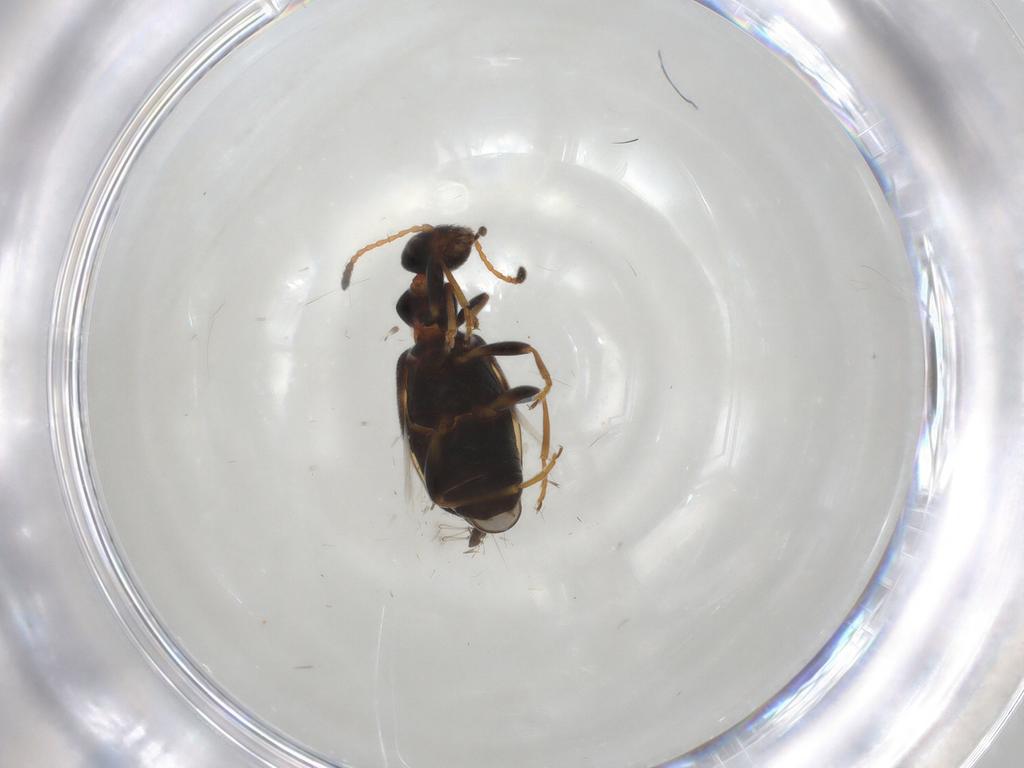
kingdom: Animalia
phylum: Arthropoda
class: Insecta
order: Coleoptera
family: Anthicidae
